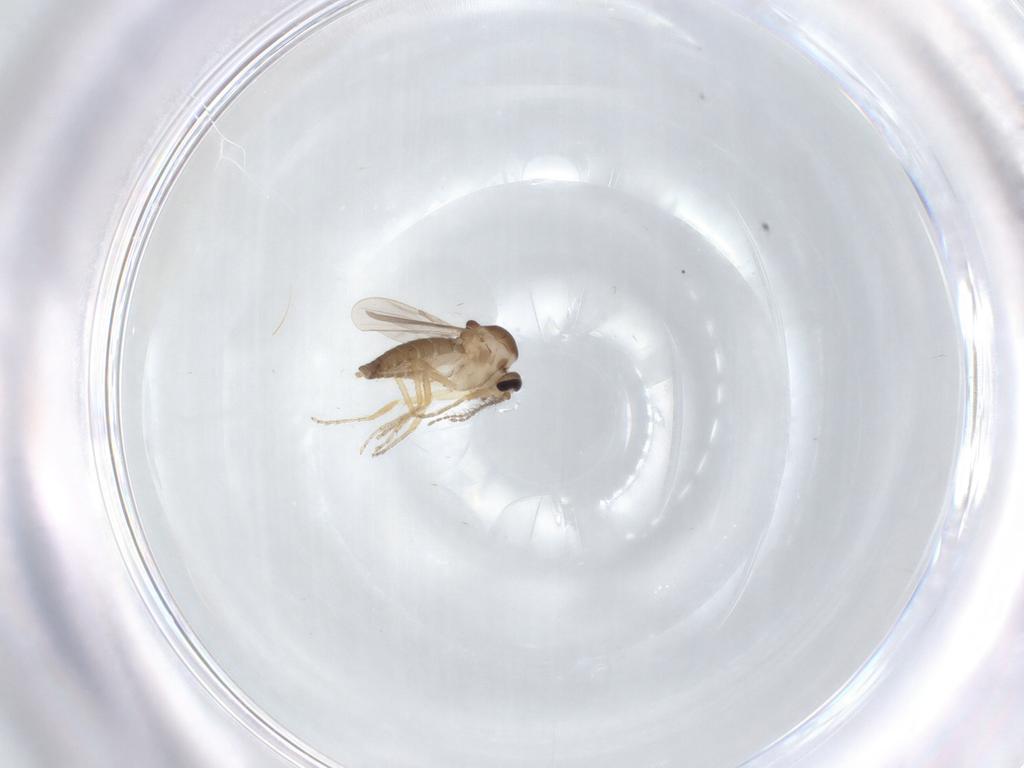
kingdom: Animalia
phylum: Arthropoda
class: Insecta
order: Diptera
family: Ceratopogonidae
